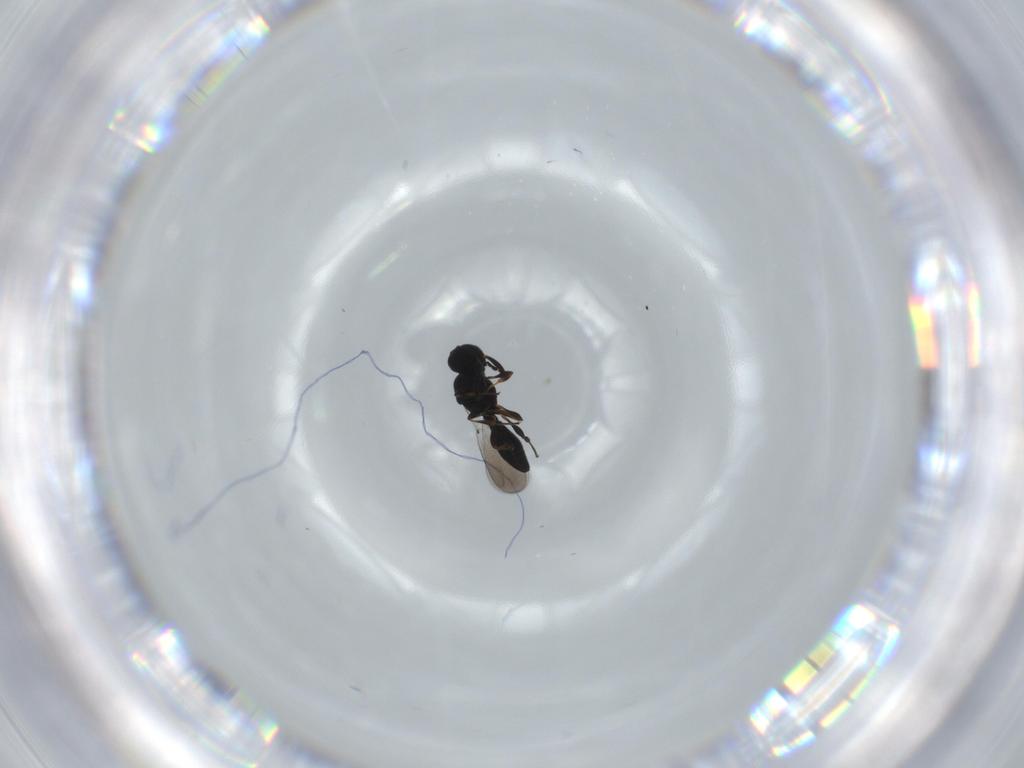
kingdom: Animalia
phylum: Arthropoda
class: Insecta
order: Hymenoptera
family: Platygastridae
